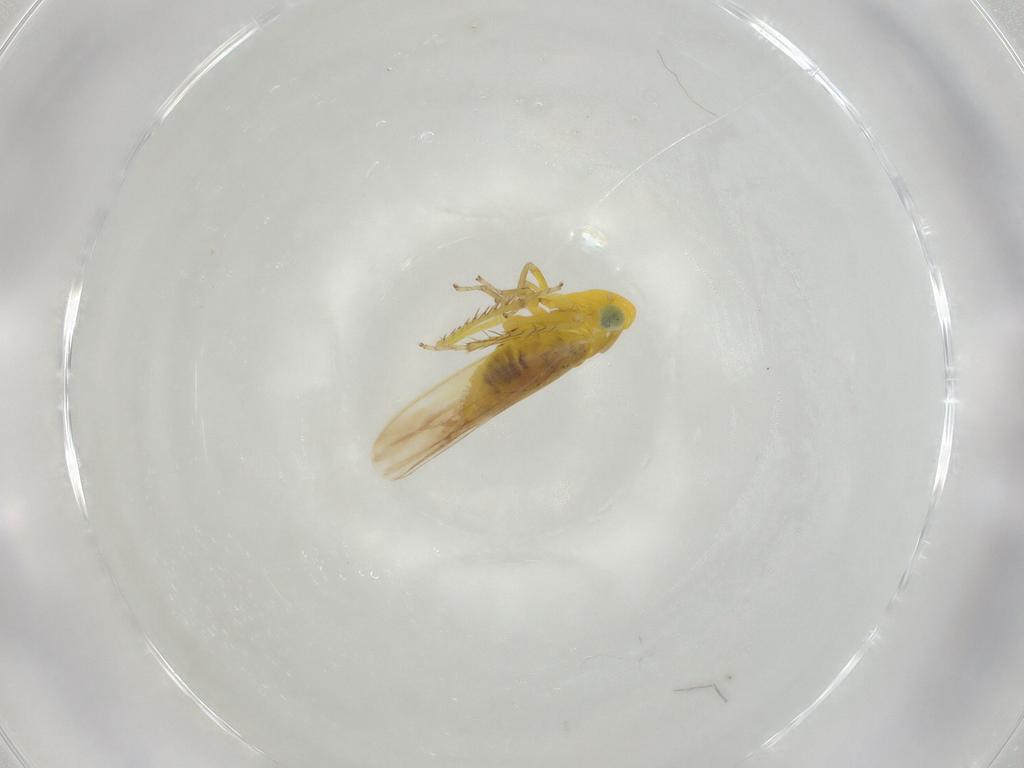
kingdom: Animalia
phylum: Arthropoda
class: Insecta
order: Hemiptera
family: Cicadellidae
